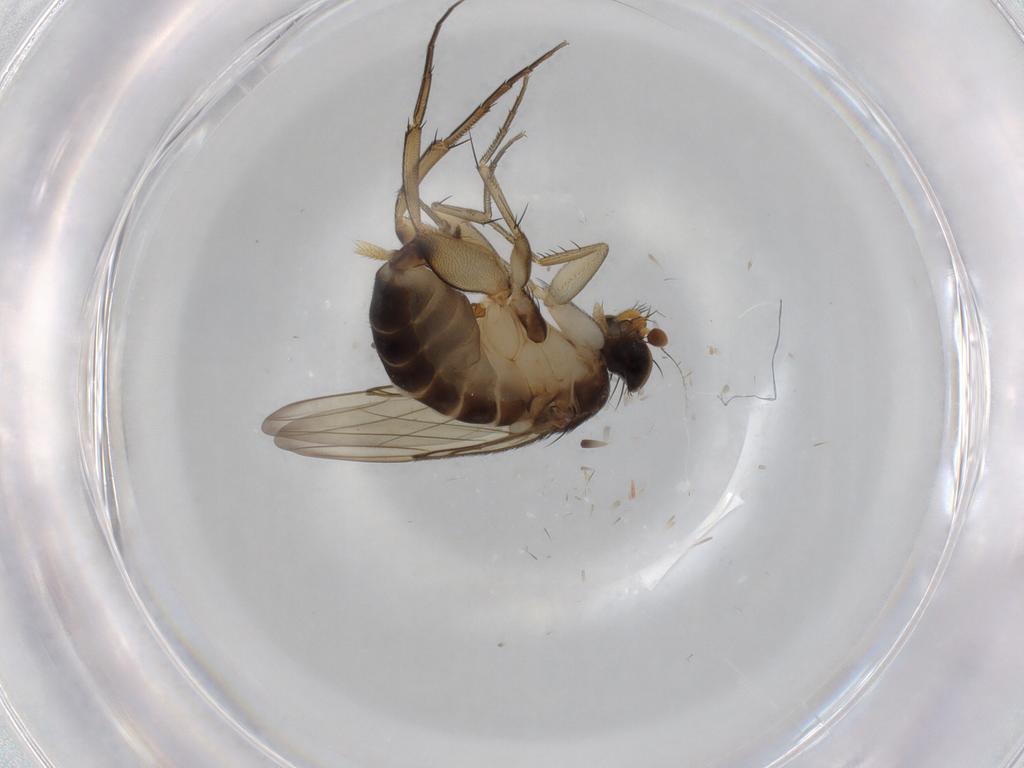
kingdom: Animalia
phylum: Arthropoda
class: Insecta
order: Diptera
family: Phoridae
